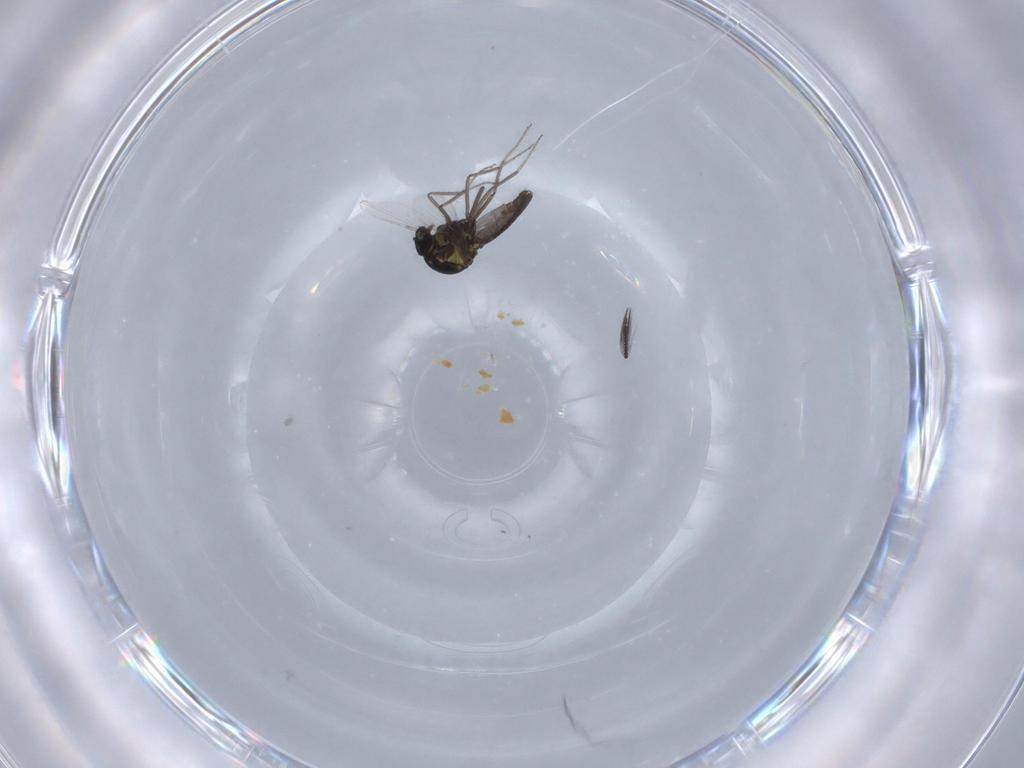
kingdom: Animalia
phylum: Arthropoda
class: Insecta
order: Diptera
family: Ceratopogonidae
